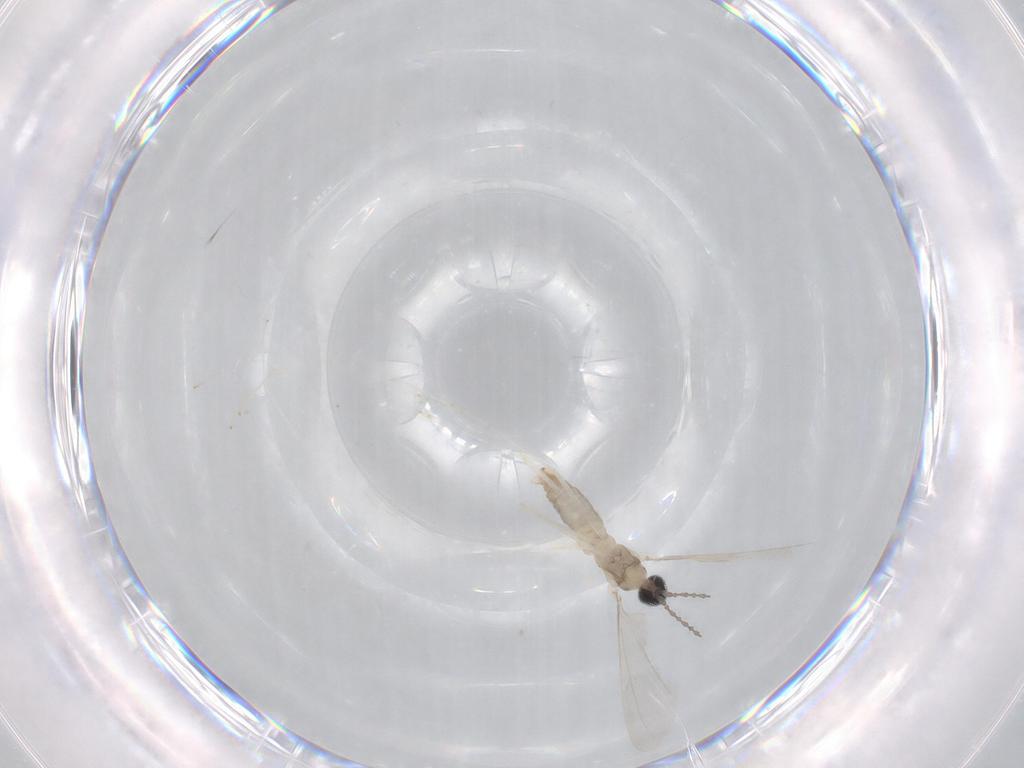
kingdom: Animalia
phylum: Arthropoda
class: Insecta
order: Diptera
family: Cecidomyiidae
